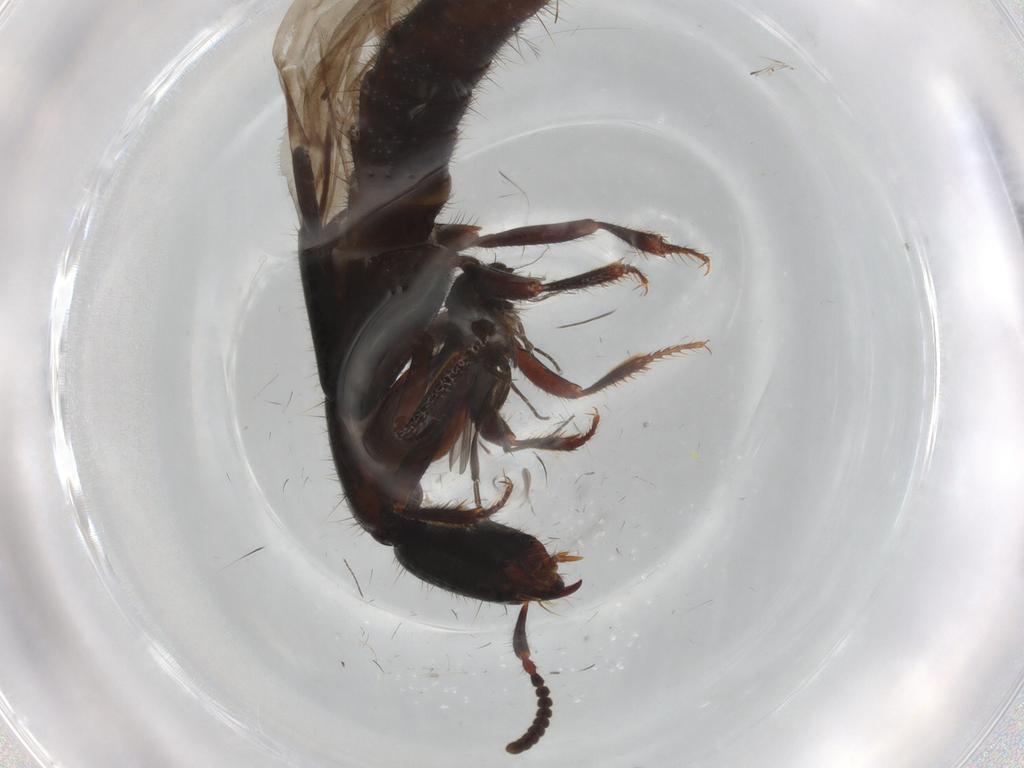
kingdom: Animalia
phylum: Arthropoda
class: Insecta
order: Diptera
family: Phoridae
